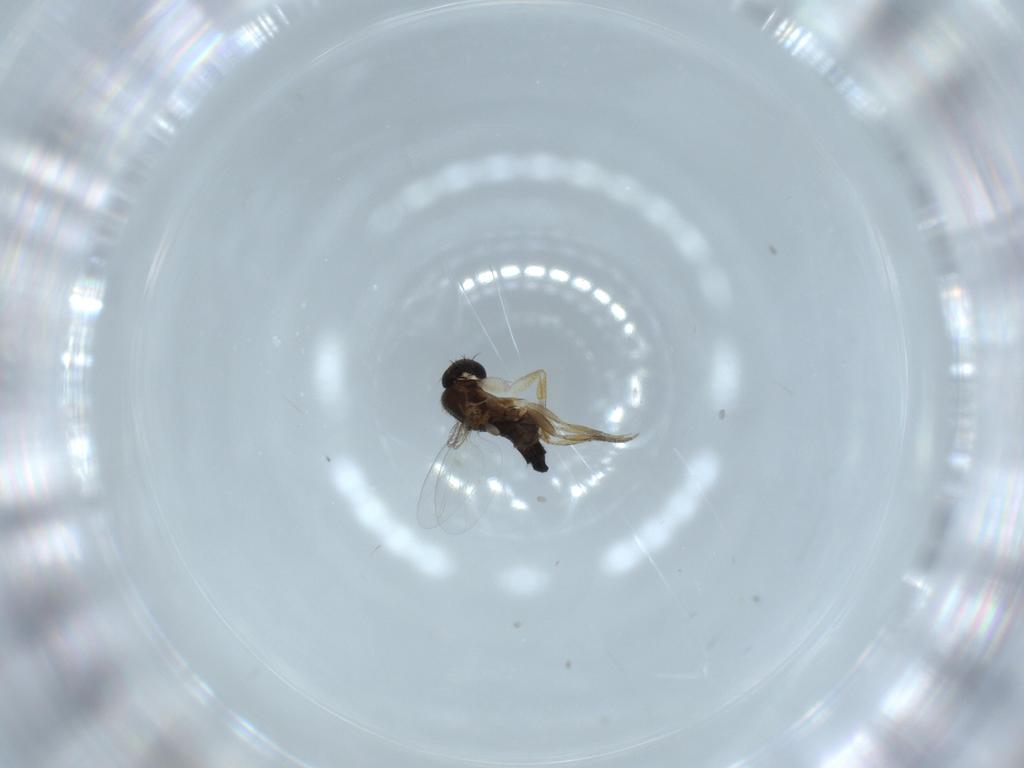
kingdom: Animalia
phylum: Arthropoda
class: Insecta
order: Diptera
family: Phoridae
